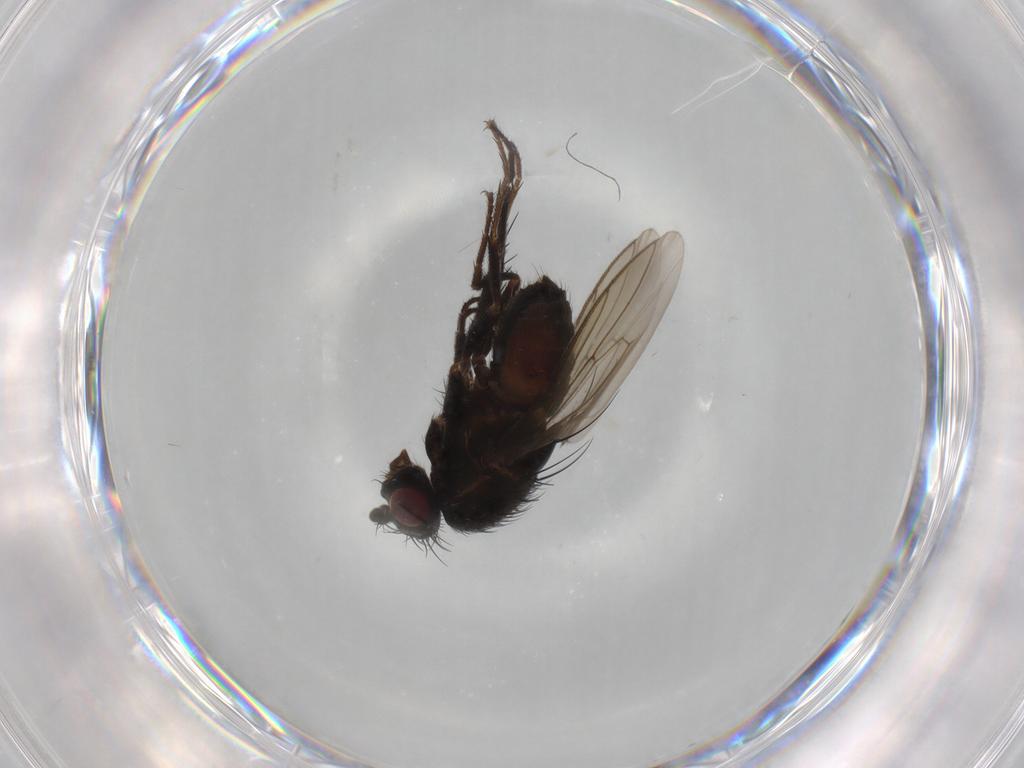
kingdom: Animalia
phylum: Arthropoda
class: Insecta
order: Diptera
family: Sphaeroceridae
